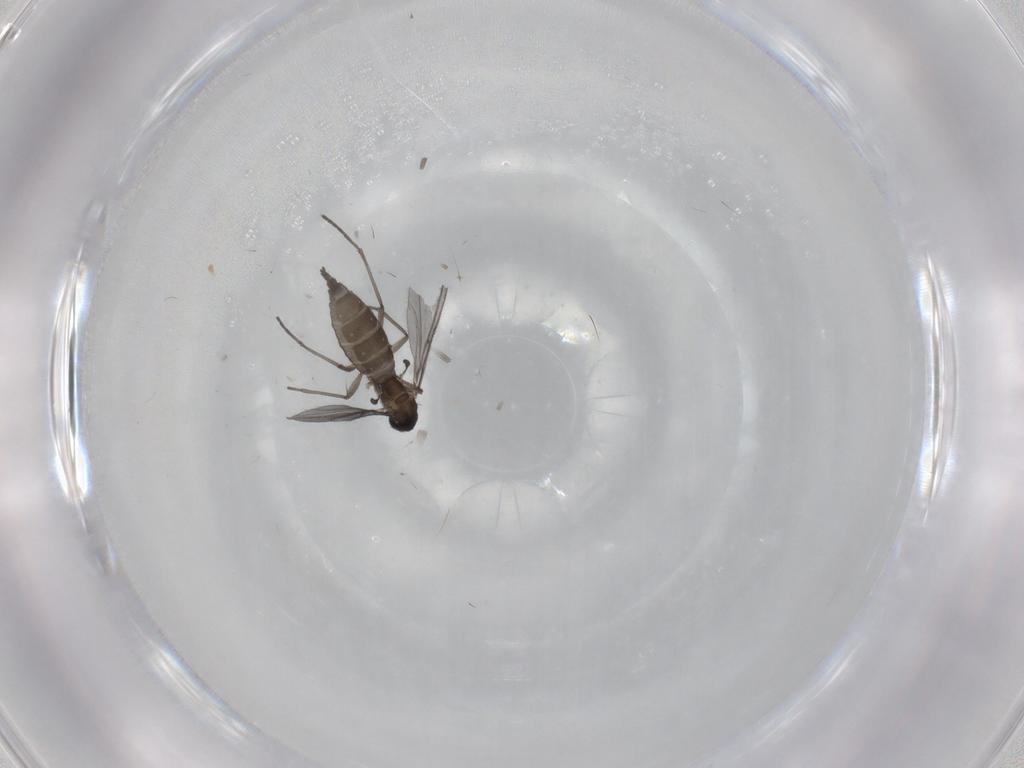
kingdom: Animalia
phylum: Arthropoda
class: Insecta
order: Diptera
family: Cecidomyiidae
